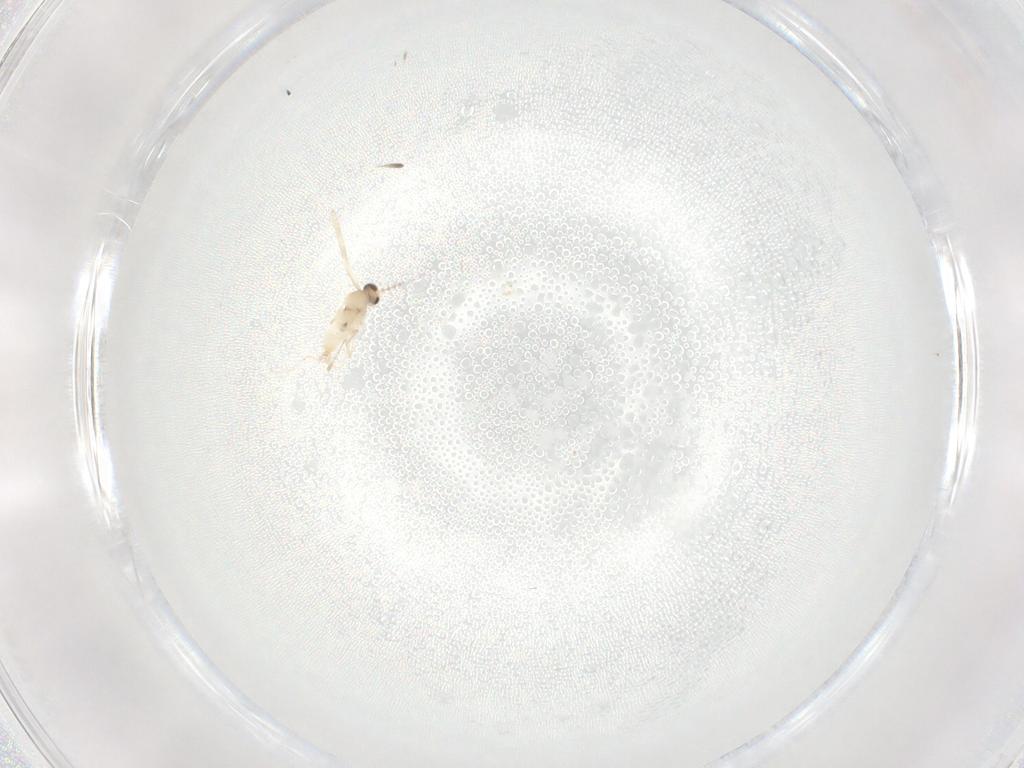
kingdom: Animalia
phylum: Arthropoda
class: Insecta
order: Diptera
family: Cecidomyiidae
